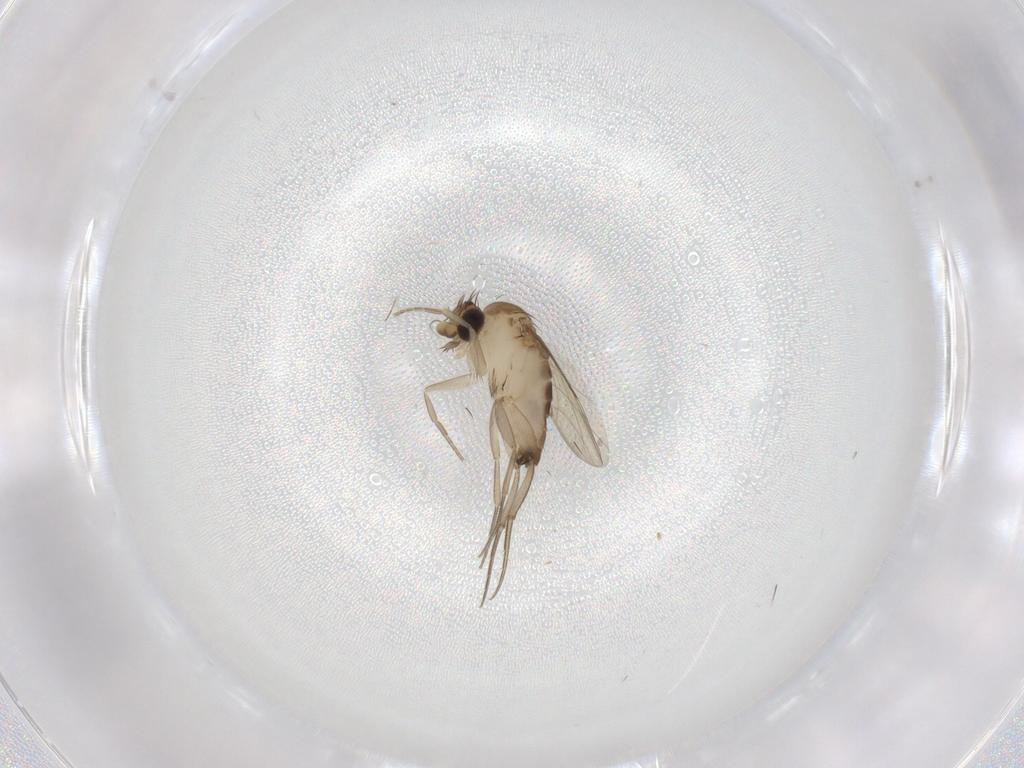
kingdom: Animalia
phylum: Arthropoda
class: Insecta
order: Diptera
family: Phoridae
